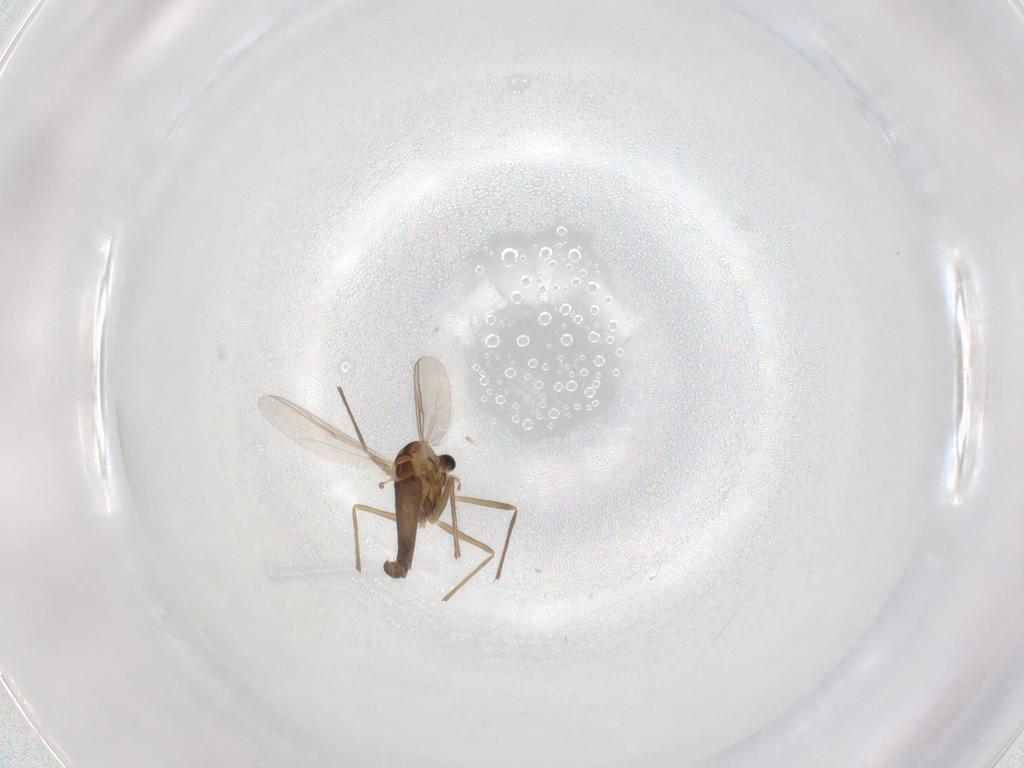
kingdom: Animalia
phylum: Arthropoda
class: Insecta
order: Diptera
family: Chironomidae
